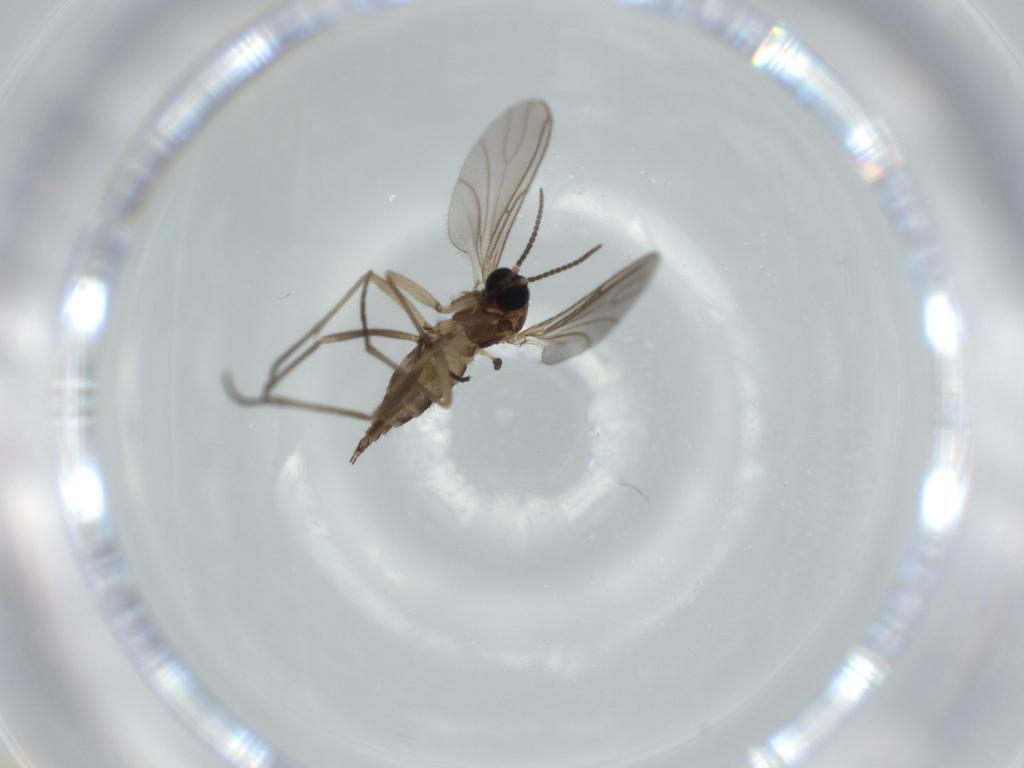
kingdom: Animalia
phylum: Arthropoda
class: Insecta
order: Diptera
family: Sciaridae
